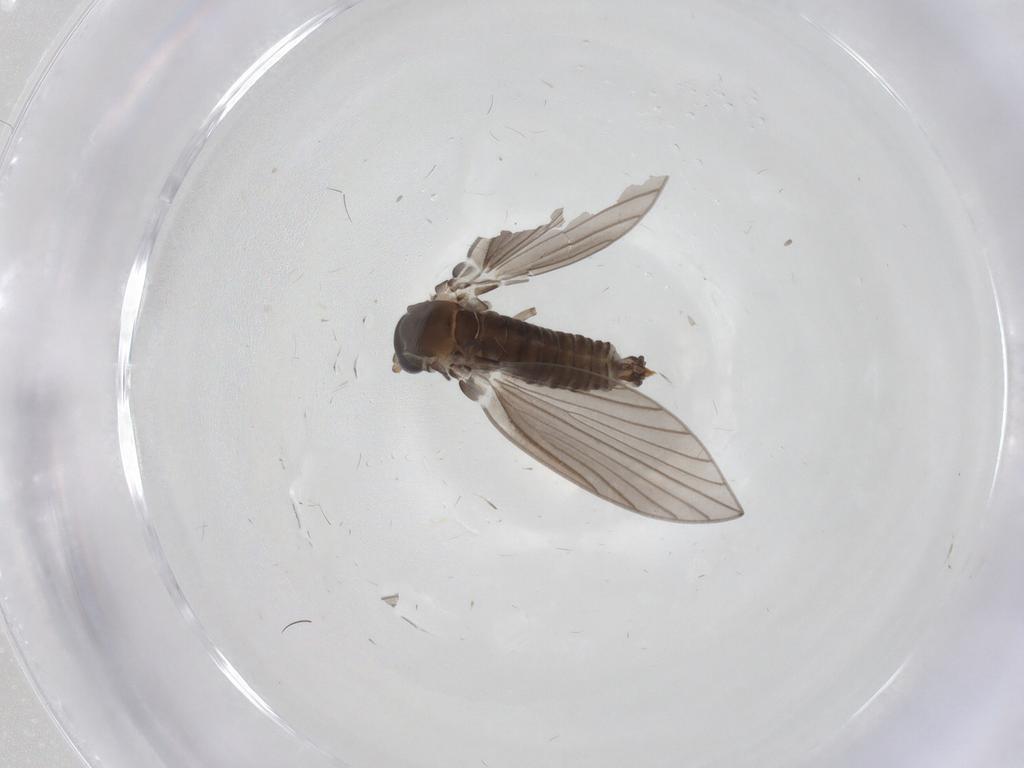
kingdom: Animalia
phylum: Arthropoda
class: Insecta
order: Diptera
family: Psychodidae
